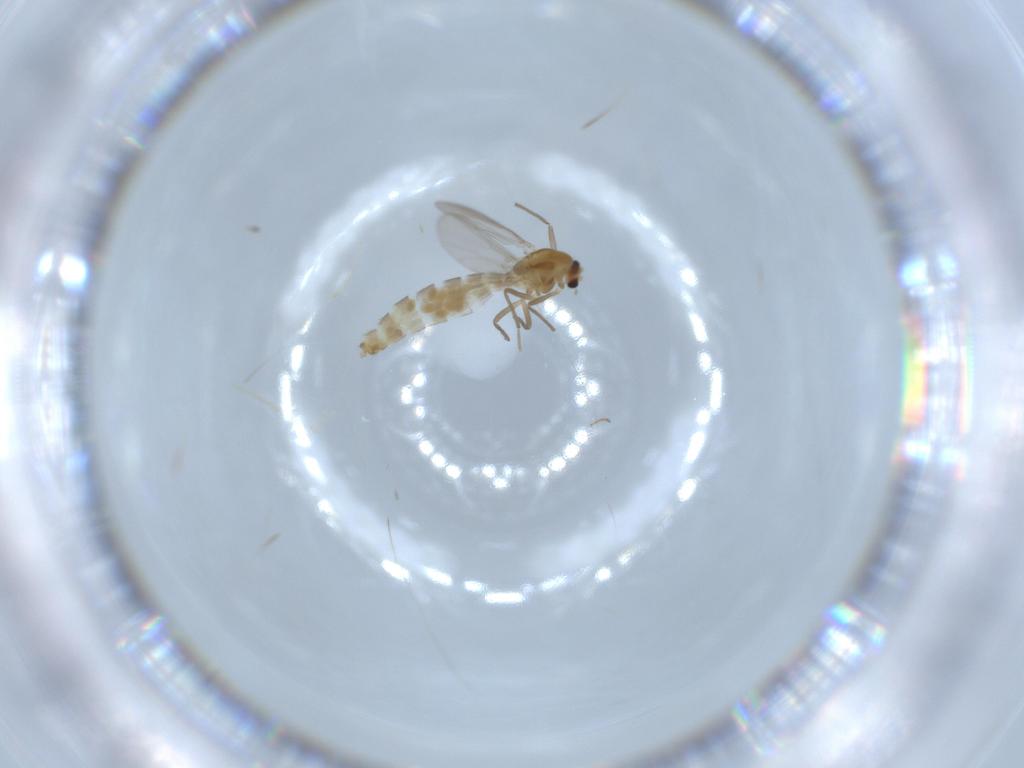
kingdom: Animalia
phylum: Arthropoda
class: Insecta
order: Diptera
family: Chironomidae
